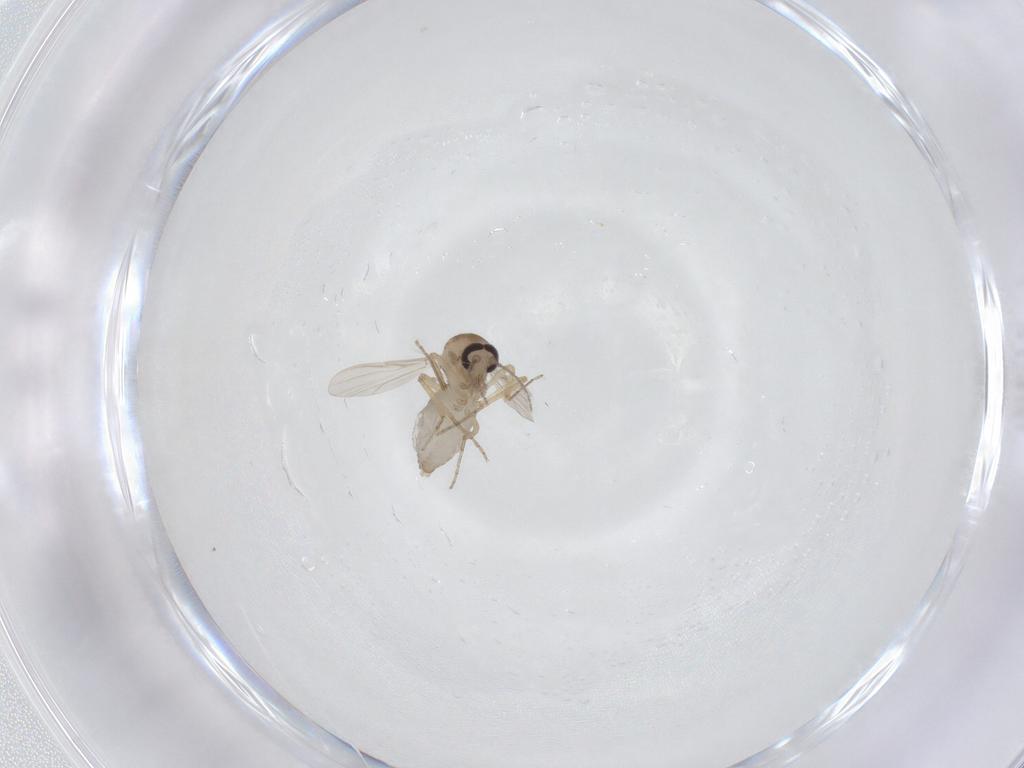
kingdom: Animalia
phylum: Arthropoda
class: Insecta
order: Diptera
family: Ceratopogonidae
